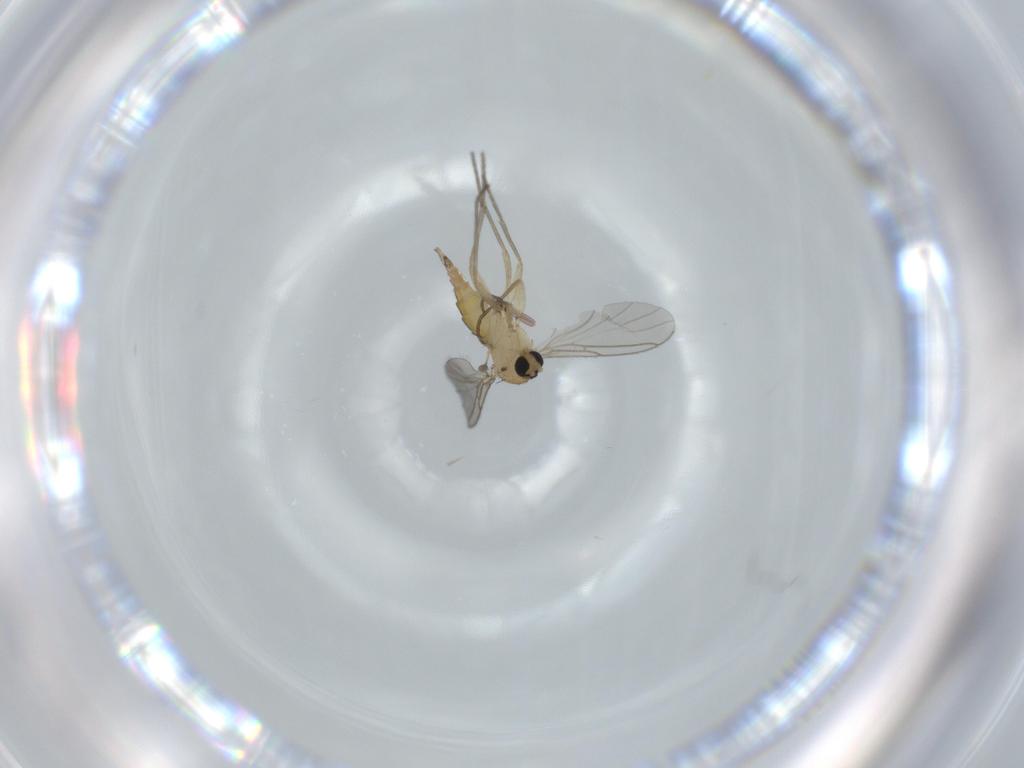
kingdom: Animalia
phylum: Arthropoda
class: Insecta
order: Diptera
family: Sciaridae
